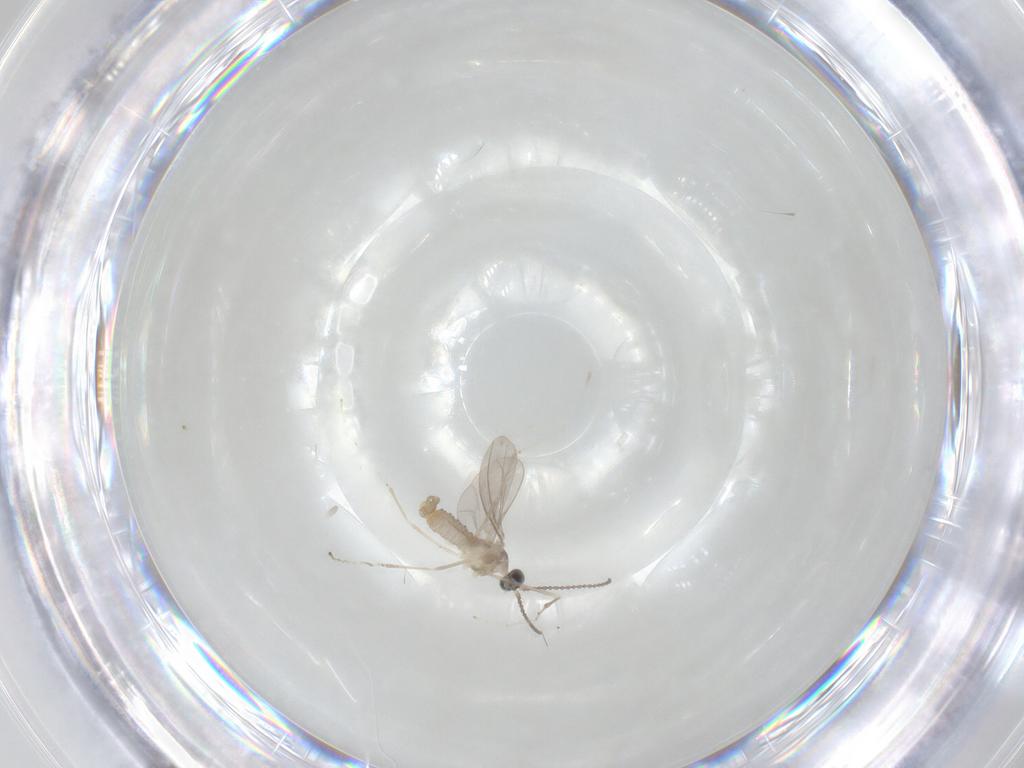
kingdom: Animalia
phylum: Arthropoda
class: Insecta
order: Diptera
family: Cecidomyiidae
